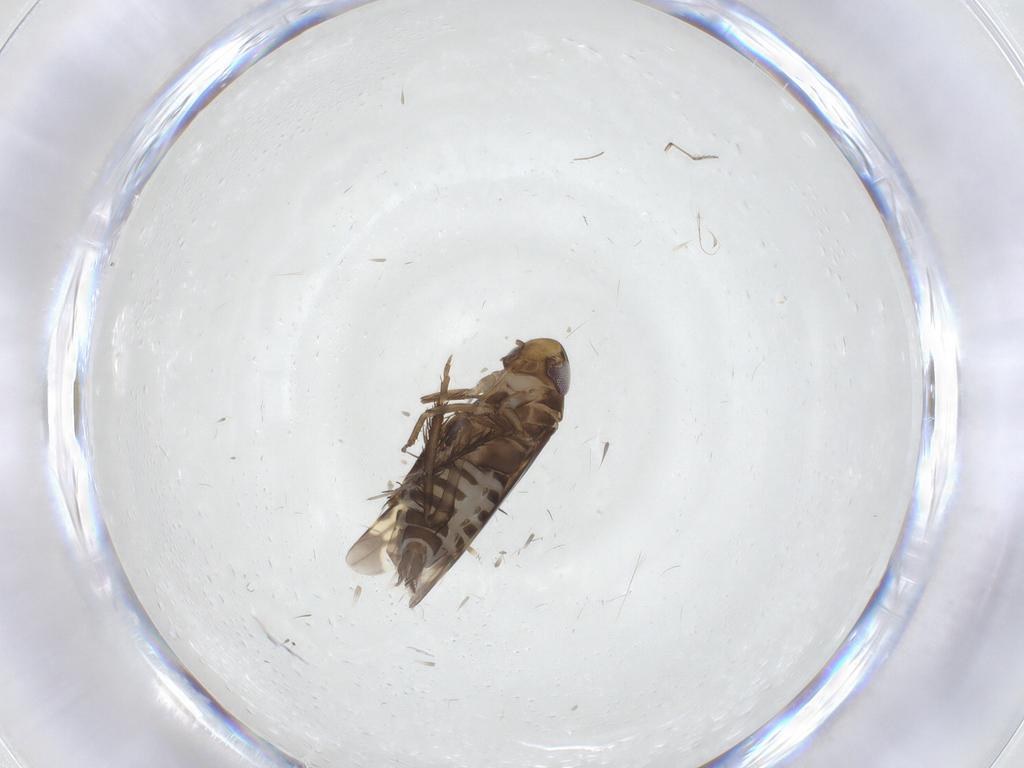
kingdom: Animalia
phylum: Arthropoda
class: Insecta
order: Hemiptera
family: Cicadellidae
